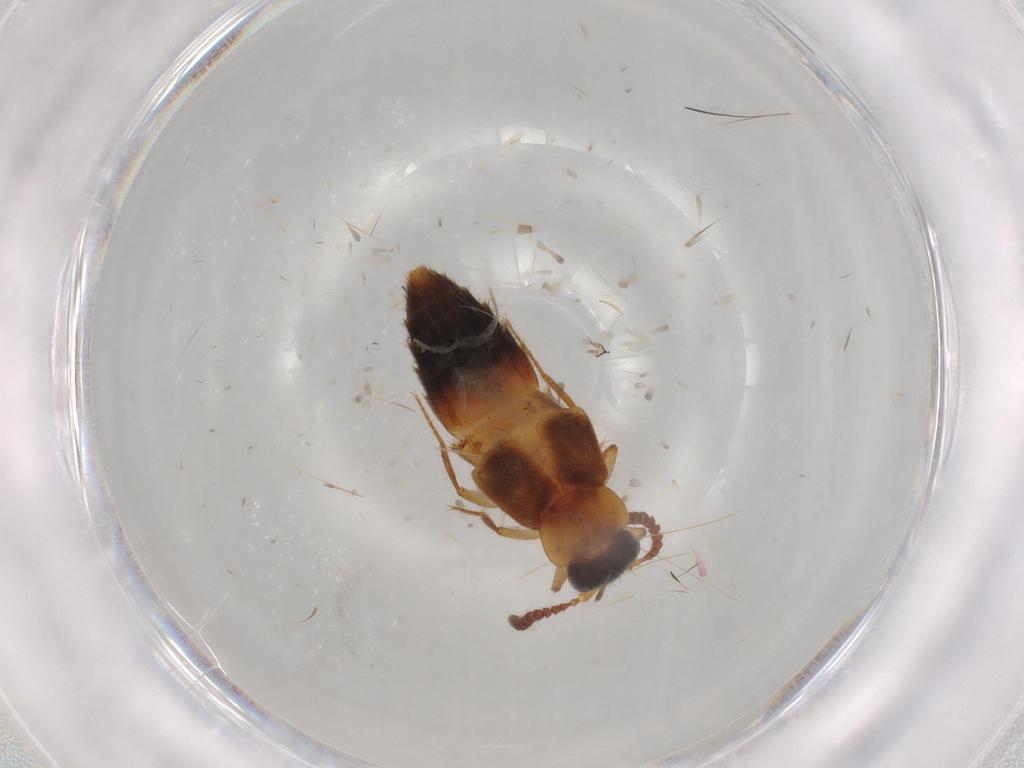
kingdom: Animalia
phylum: Arthropoda
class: Insecta
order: Coleoptera
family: Staphylinidae
